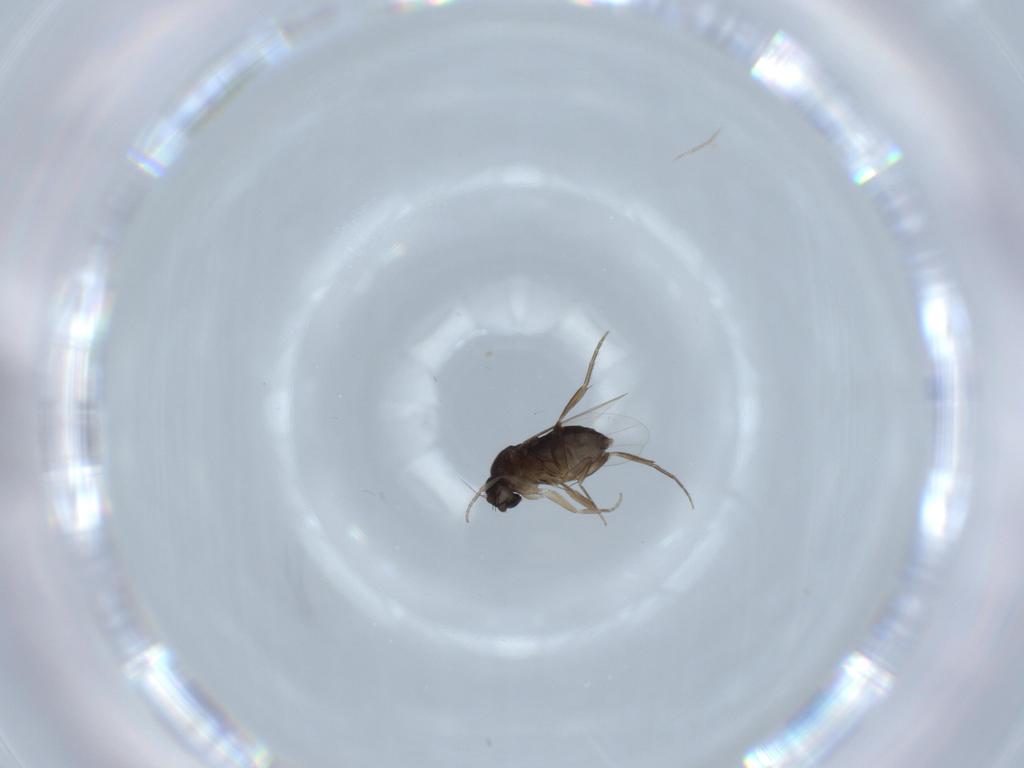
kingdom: Animalia
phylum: Arthropoda
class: Insecta
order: Diptera
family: Phoridae
